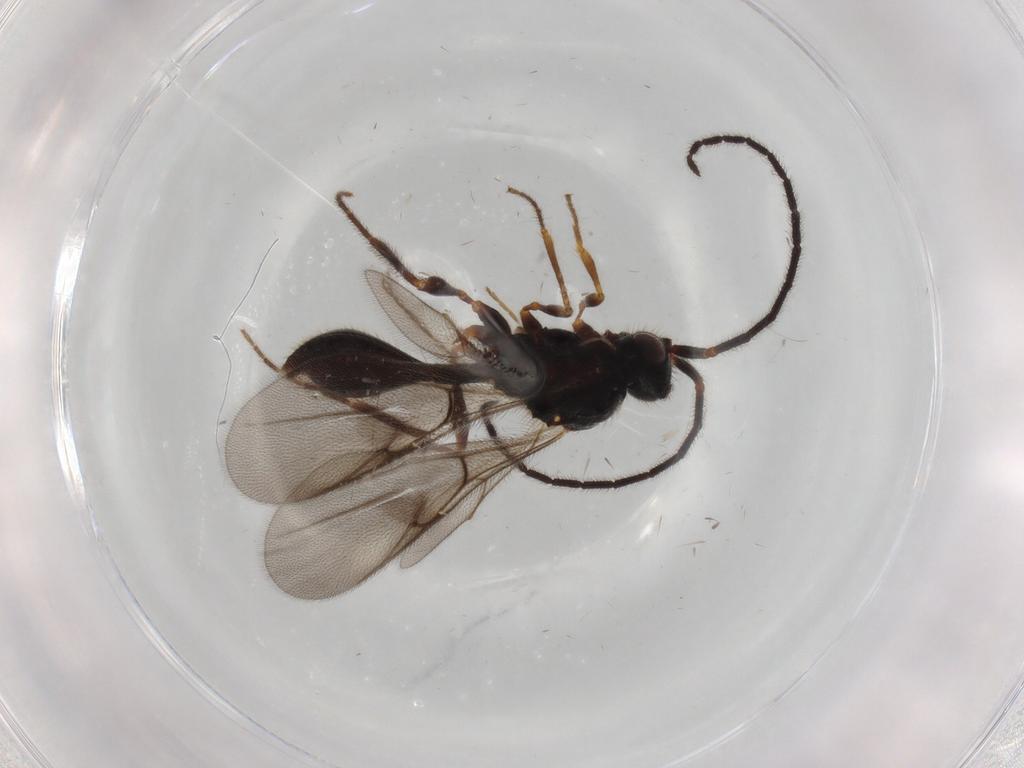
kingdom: Animalia
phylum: Arthropoda
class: Insecta
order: Hymenoptera
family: Diapriidae
